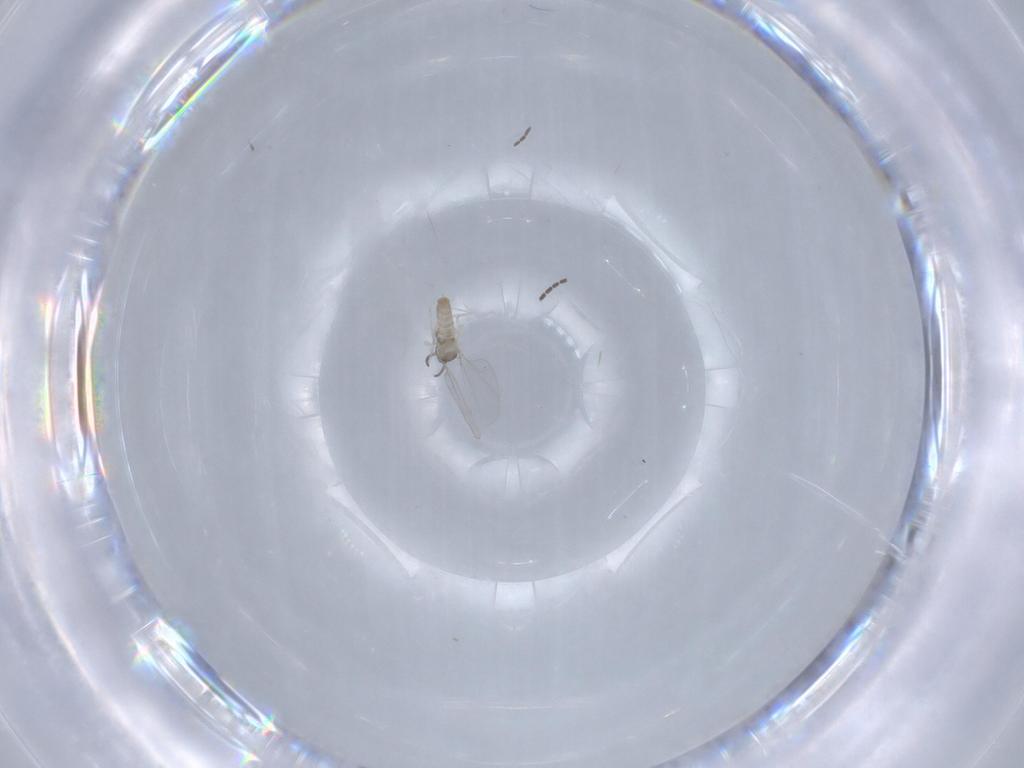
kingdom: Animalia
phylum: Arthropoda
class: Insecta
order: Diptera
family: Cecidomyiidae
